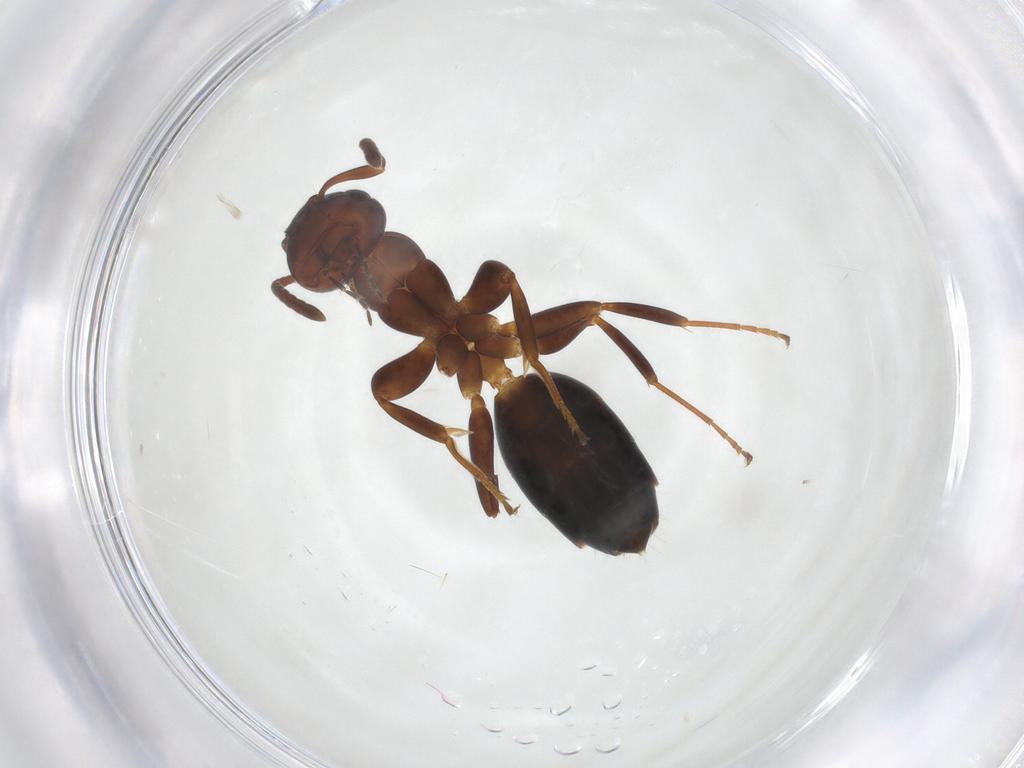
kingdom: Animalia
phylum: Arthropoda
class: Insecta
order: Hymenoptera
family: Formicidae
